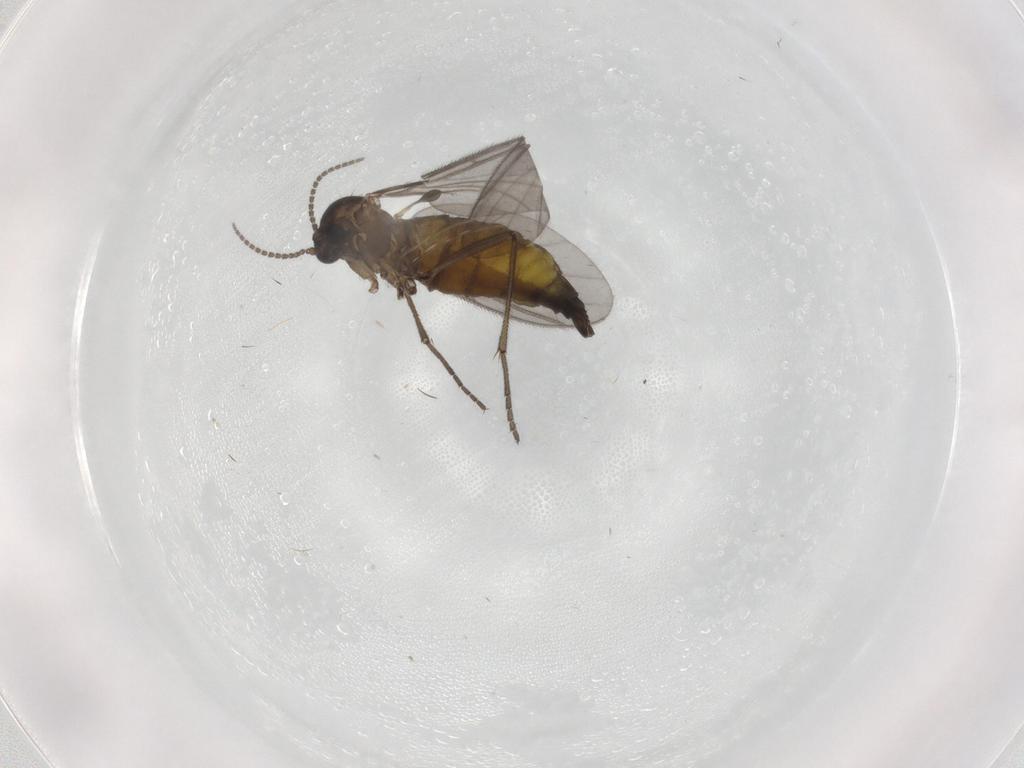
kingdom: Animalia
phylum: Arthropoda
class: Insecta
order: Diptera
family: Sciaridae
